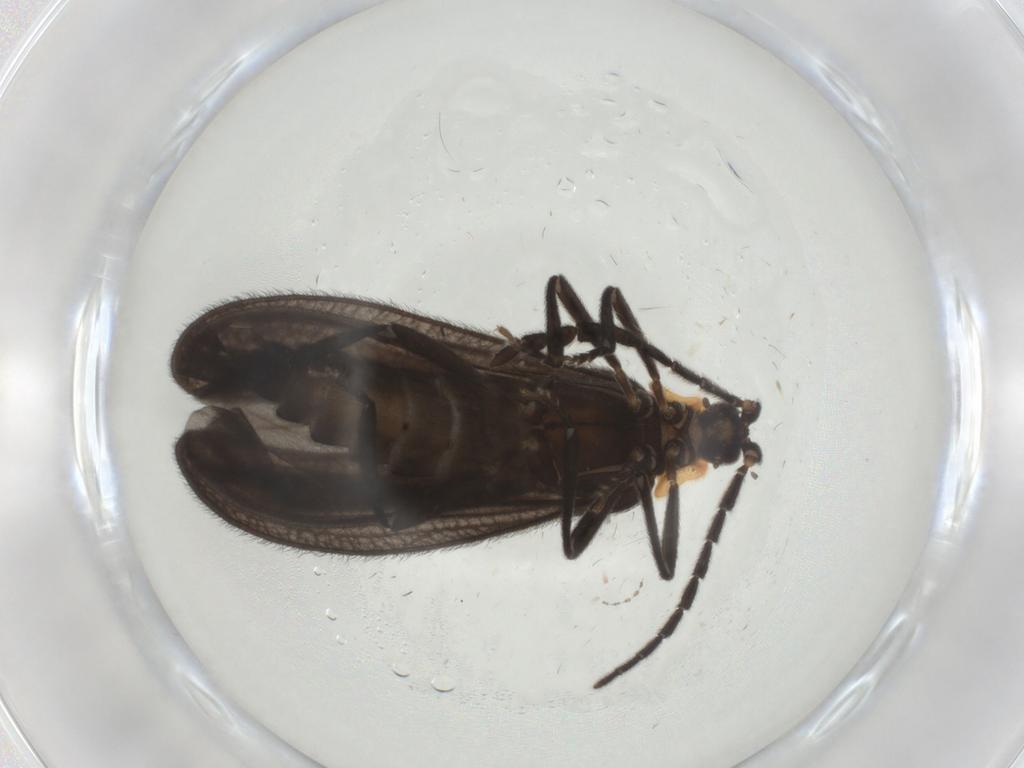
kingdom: Animalia
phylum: Arthropoda
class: Insecta
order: Coleoptera
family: Lycidae
